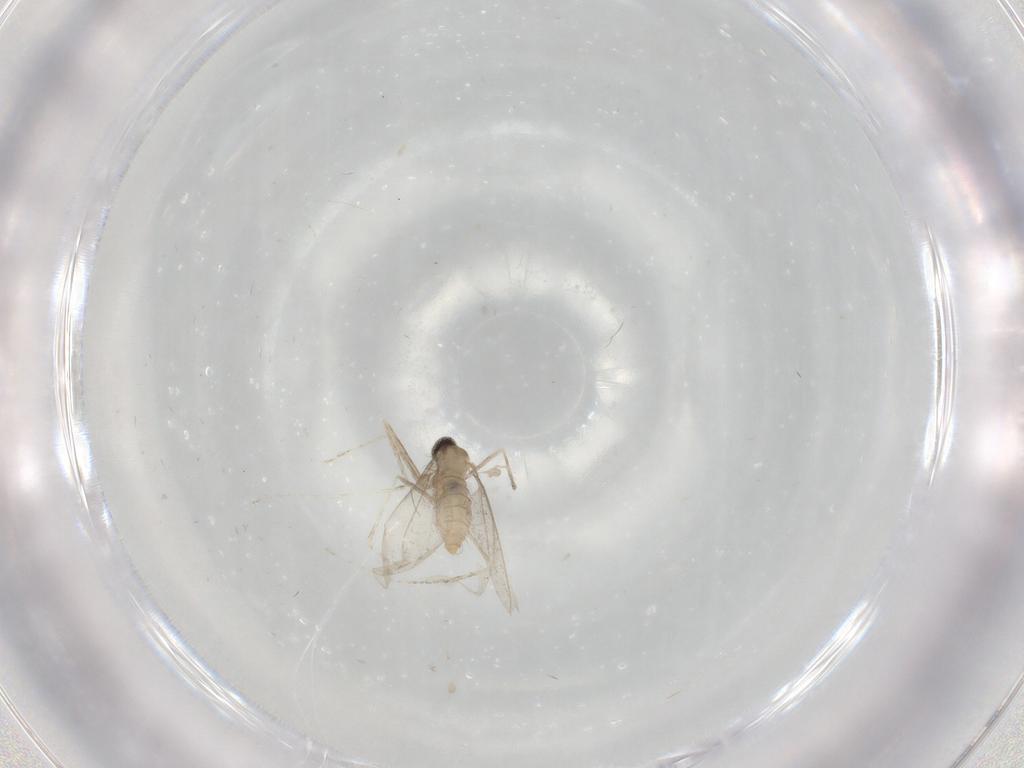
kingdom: Animalia
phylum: Arthropoda
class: Insecta
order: Diptera
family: Cecidomyiidae
